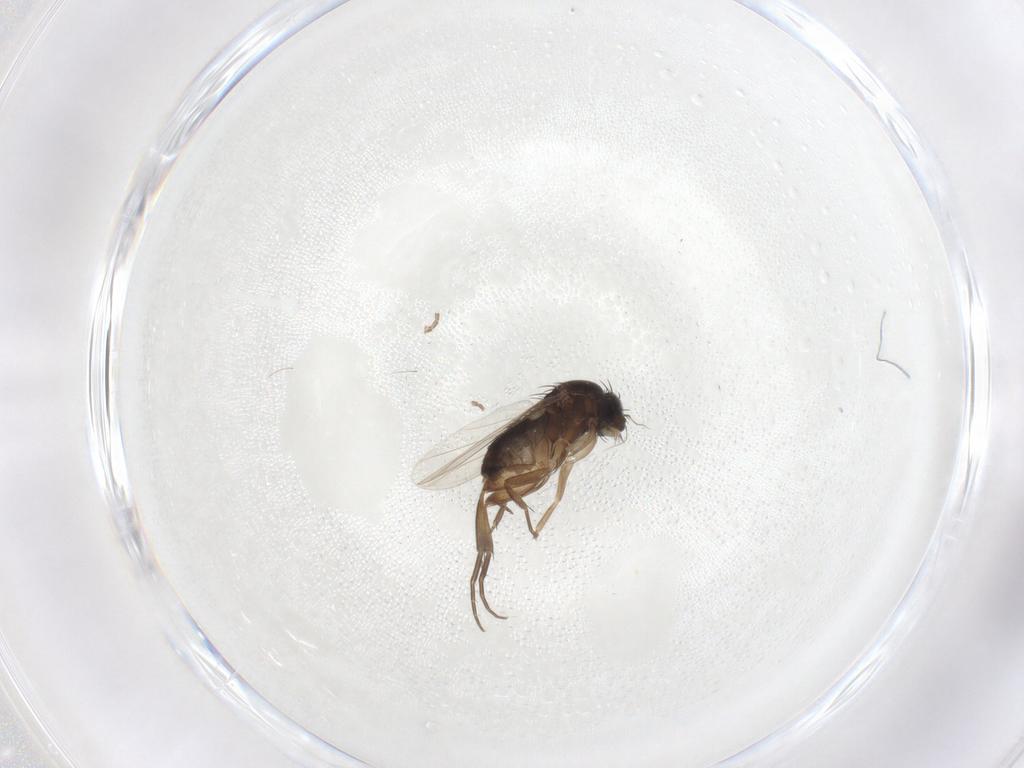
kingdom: Animalia
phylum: Arthropoda
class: Insecta
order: Diptera
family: Phoridae
